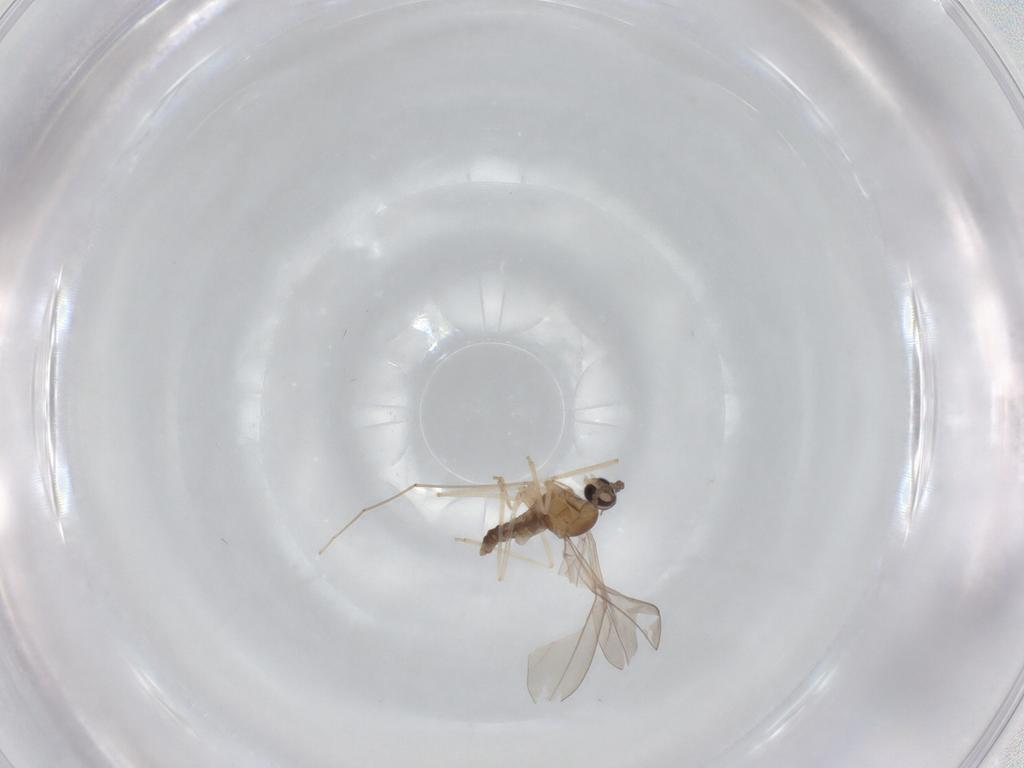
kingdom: Animalia
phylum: Arthropoda
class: Insecta
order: Diptera
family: Cecidomyiidae
